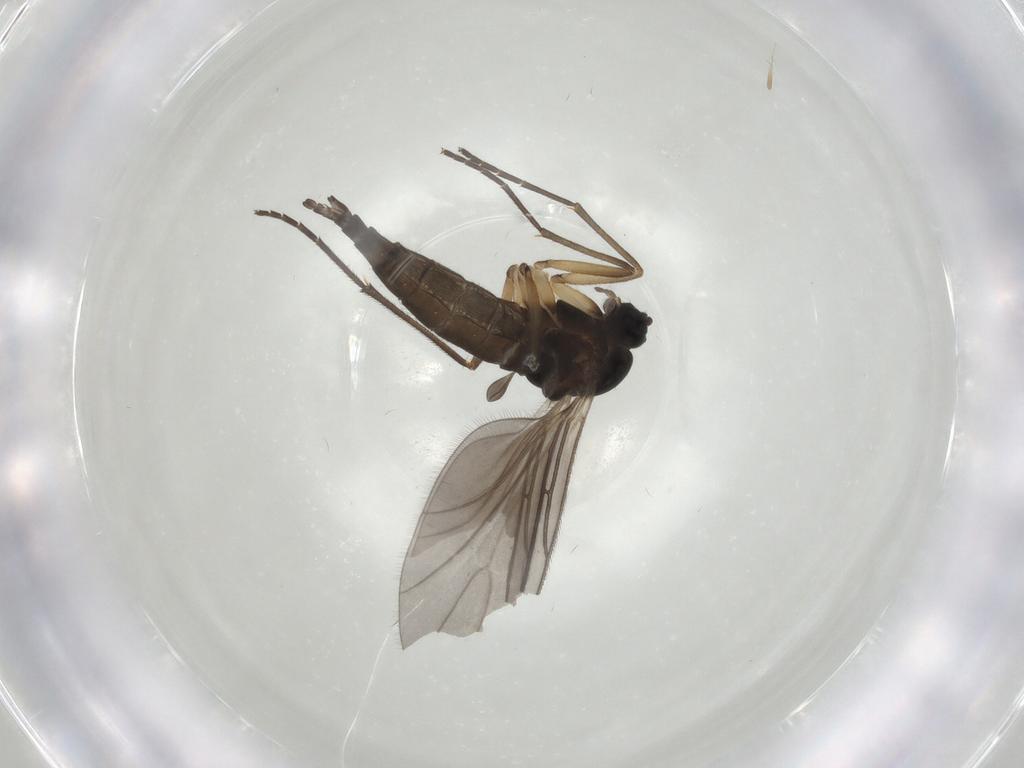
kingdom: Animalia
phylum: Arthropoda
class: Insecta
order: Diptera
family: Sciaridae
